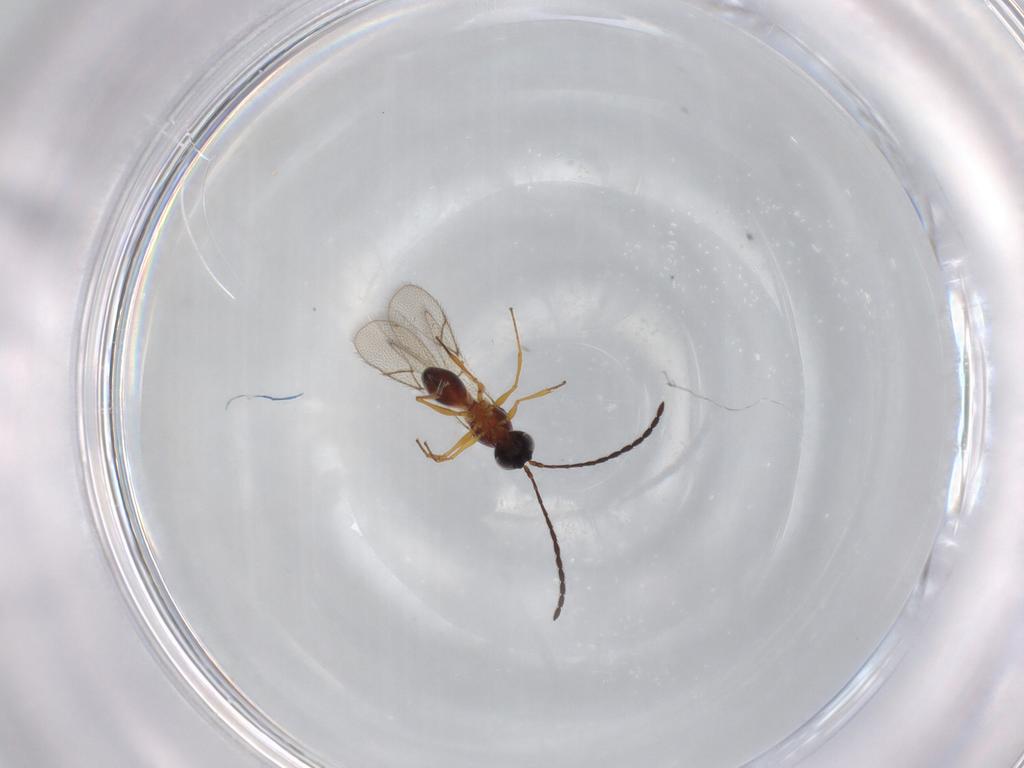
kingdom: Animalia
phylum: Arthropoda
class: Insecta
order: Hymenoptera
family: Figitidae
